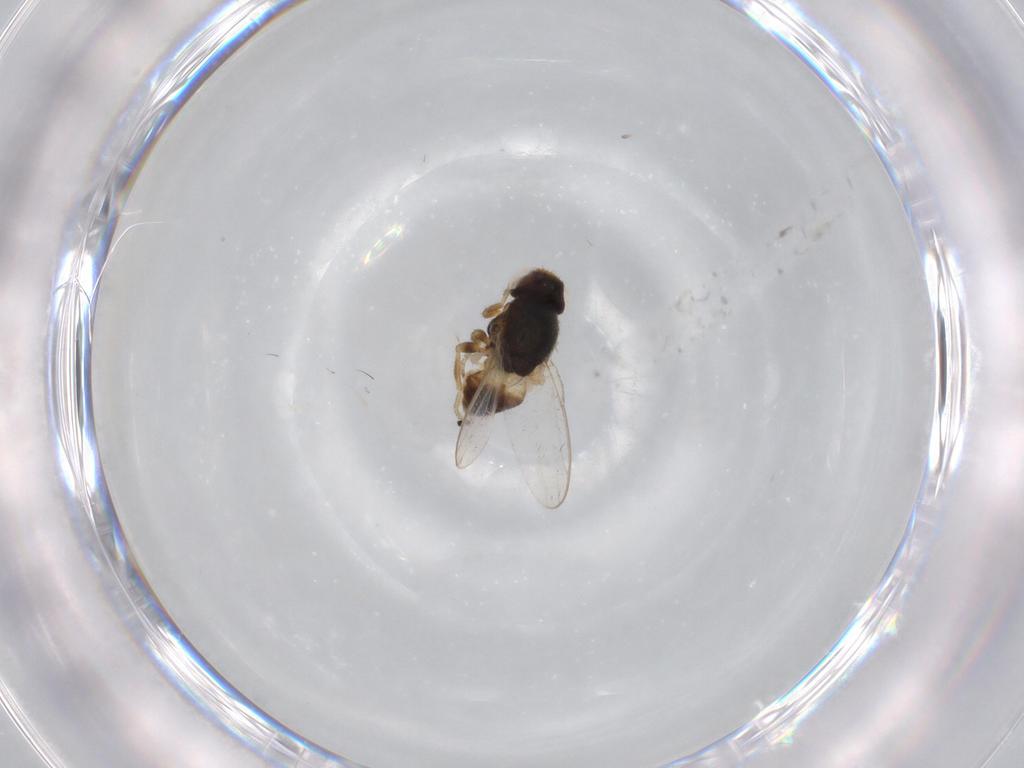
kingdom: Animalia
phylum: Arthropoda
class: Insecta
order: Diptera
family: Chloropidae
